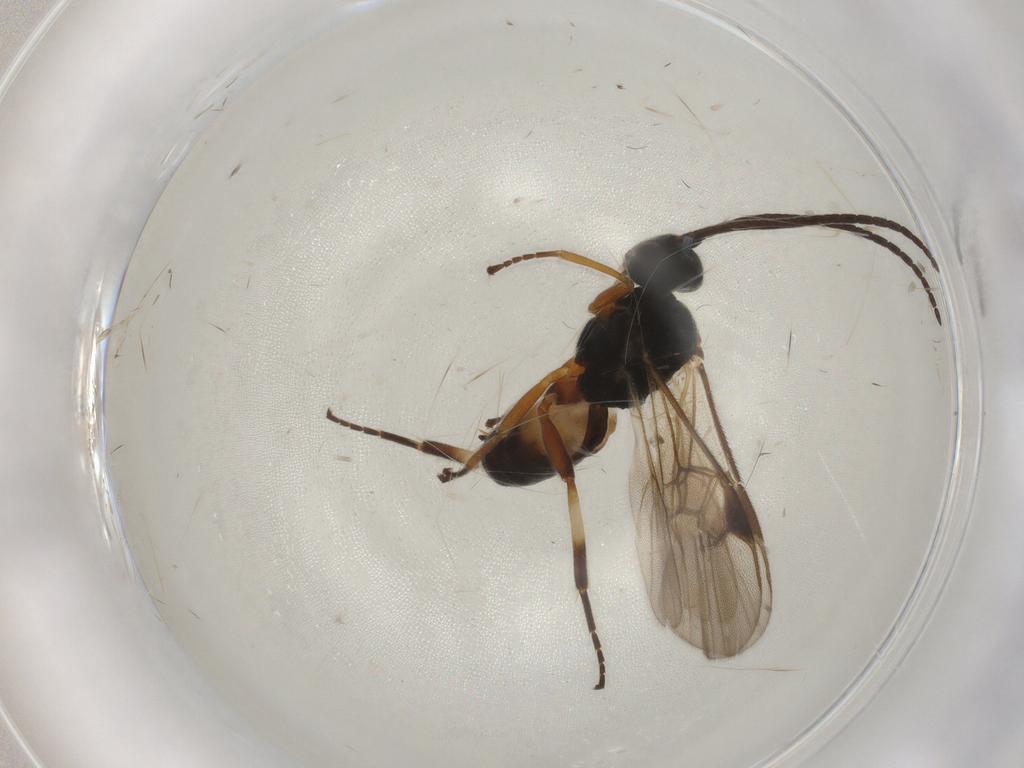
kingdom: Animalia
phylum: Arthropoda
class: Insecta
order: Hymenoptera
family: Braconidae
